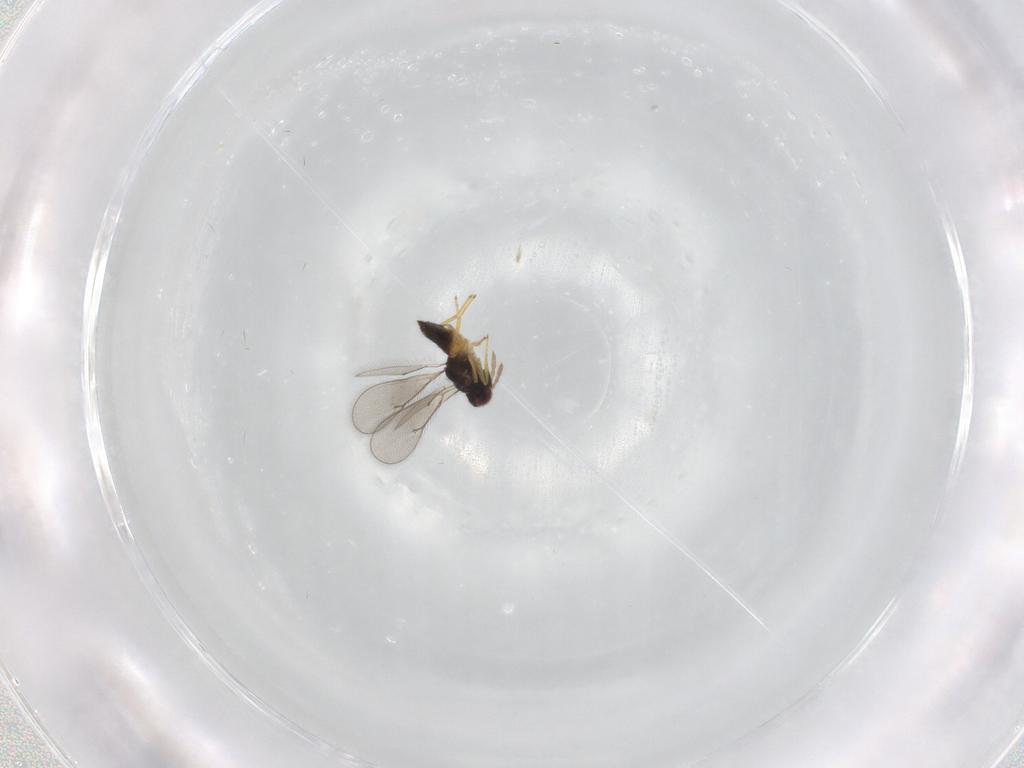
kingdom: Animalia
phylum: Arthropoda
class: Insecta
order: Hymenoptera
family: Eulophidae
